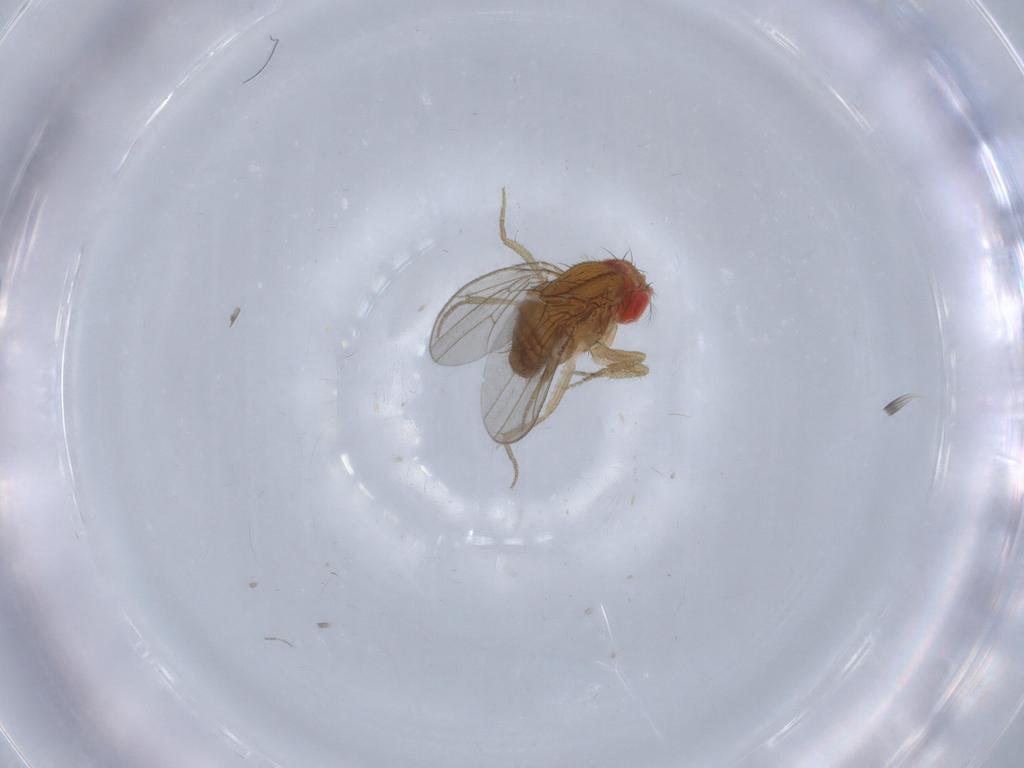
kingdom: Animalia
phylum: Arthropoda
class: Insecta
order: Diptera
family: Drosophilidae
